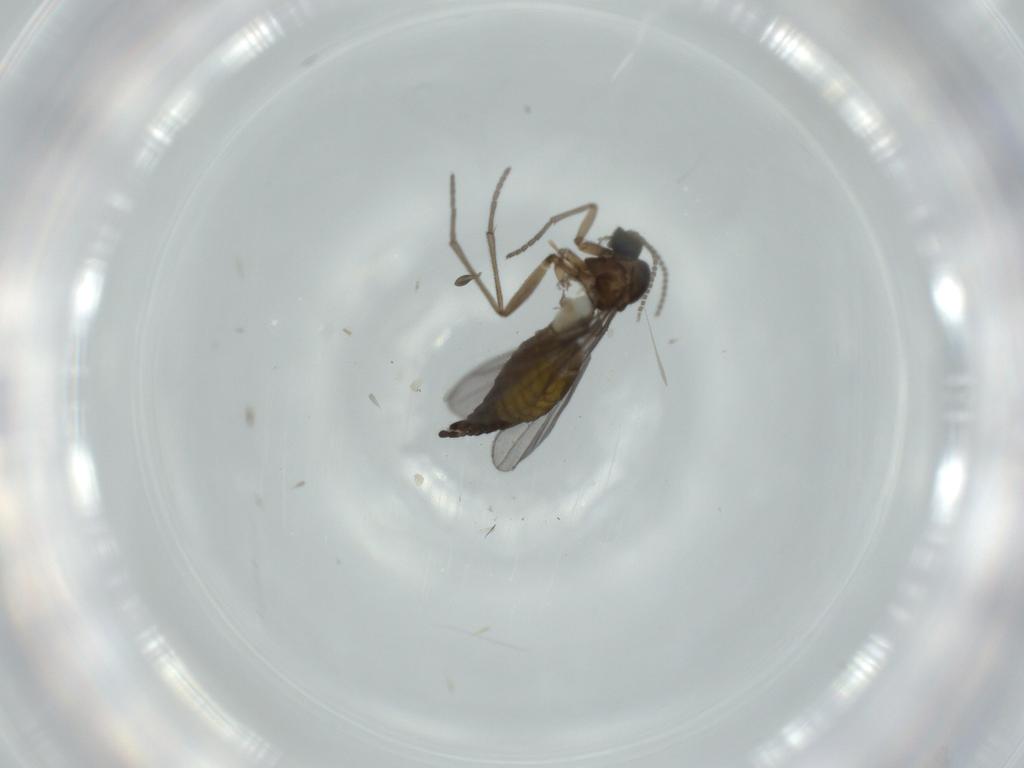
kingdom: Animalia
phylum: Arthropoda
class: Insecta
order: Diptera
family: Sciaridae
